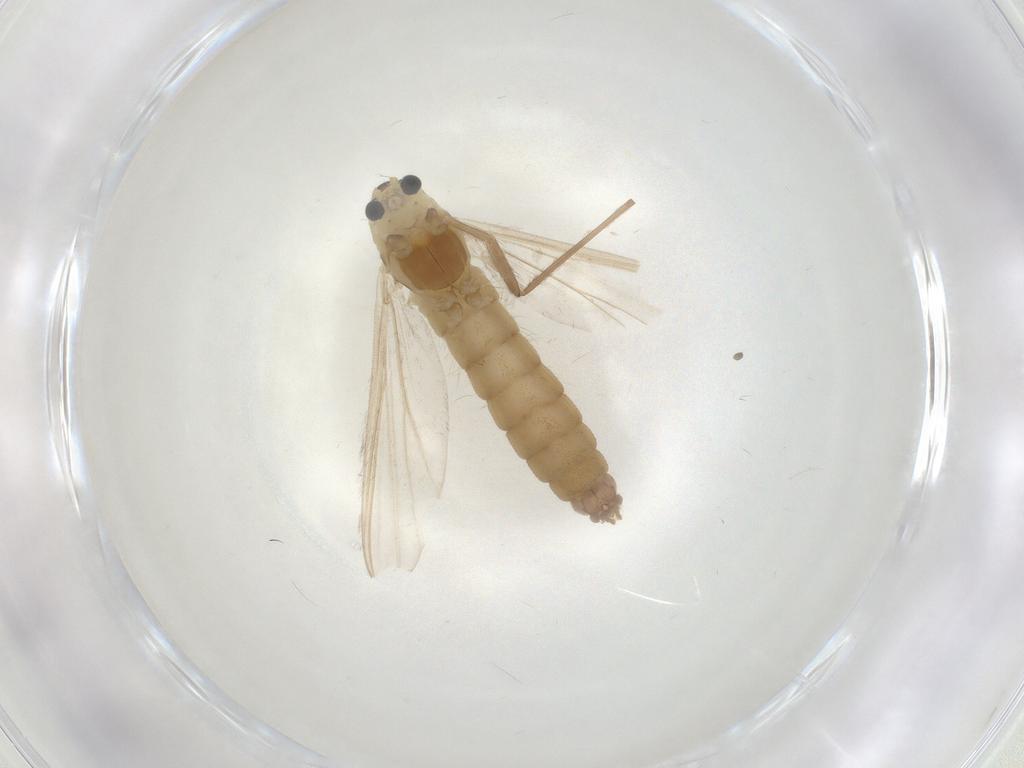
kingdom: Animalia
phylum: Arthropoda
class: Insecta
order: Diptera
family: Chironomidae
